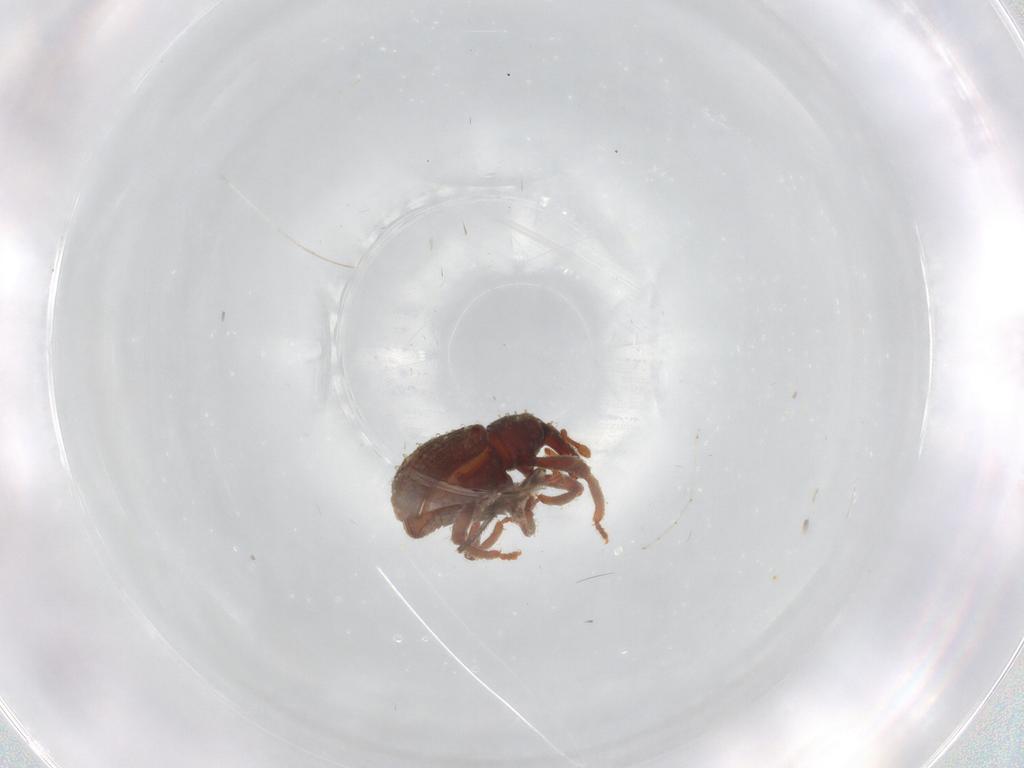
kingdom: Animalia
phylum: Arthropoda
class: Insecta
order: Coleoptera
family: Curculionidae
